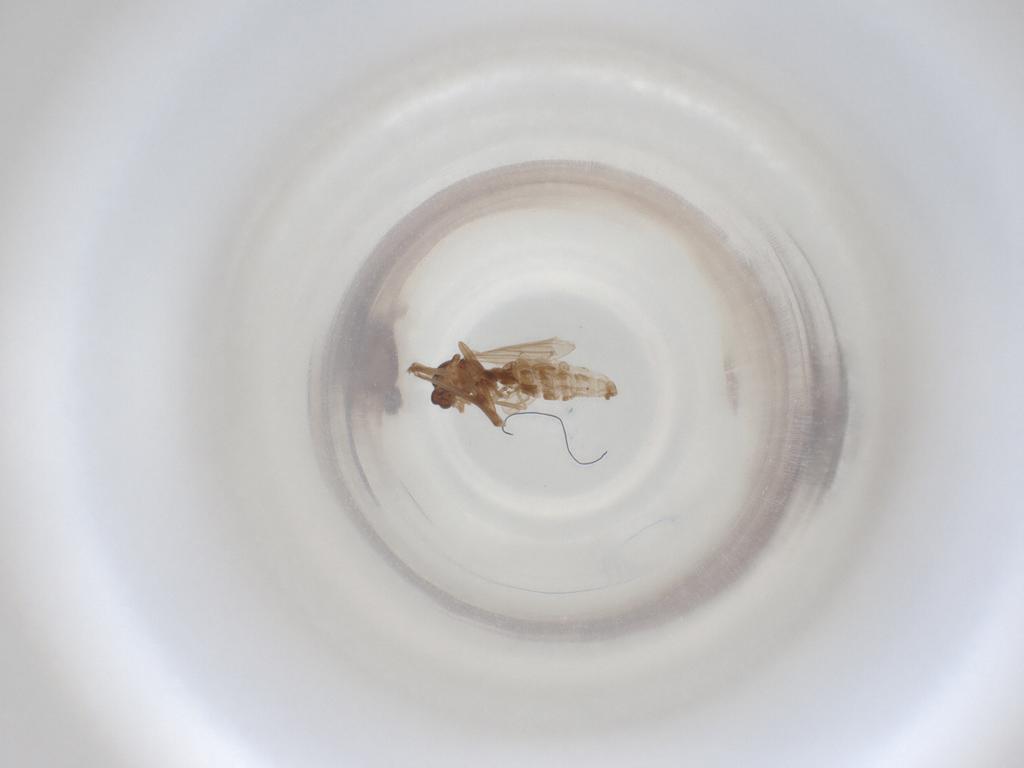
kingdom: Animalia
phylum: Arthropoda
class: Insecta
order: Diptera
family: Cecidomyiidae
